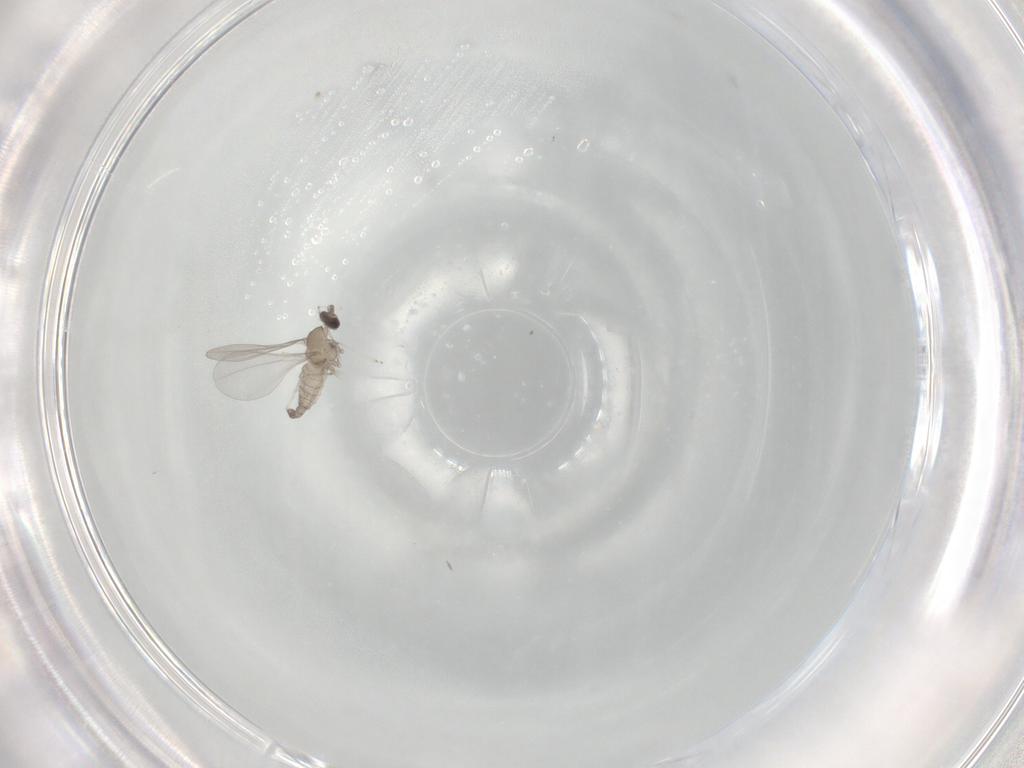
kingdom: Animalia
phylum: Arthropoda
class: Insecta
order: Diptera
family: Cecidomyiidae
